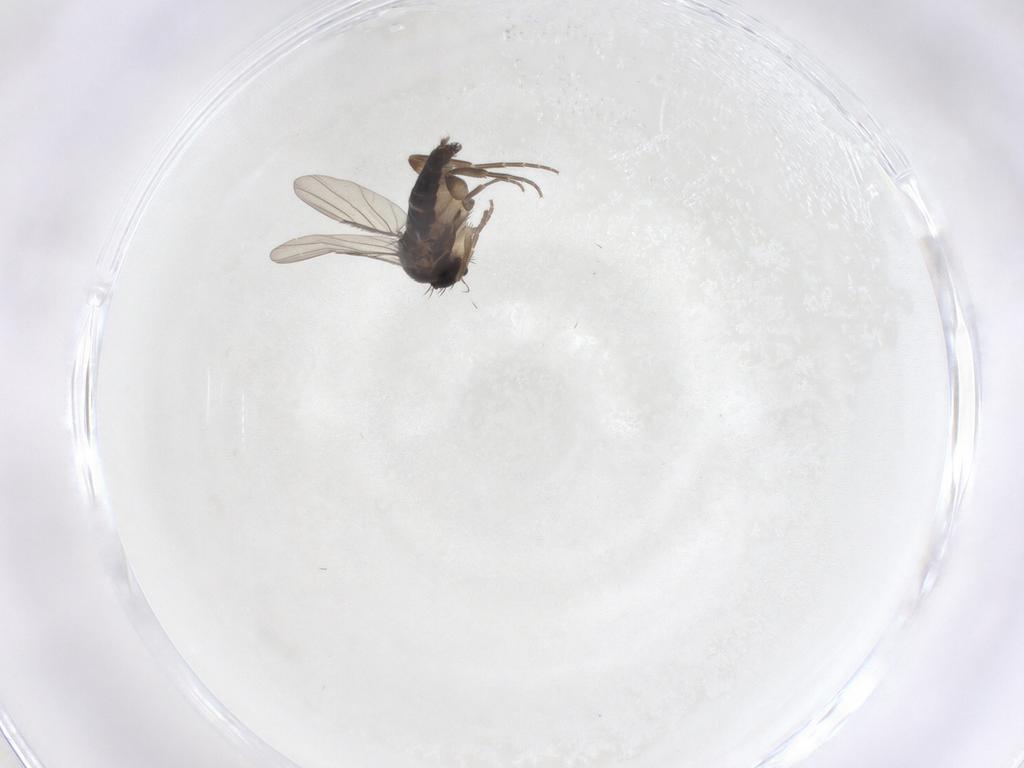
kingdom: Animalia
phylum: Arthropoda
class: Insecta
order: Diptera
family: Phoridae
